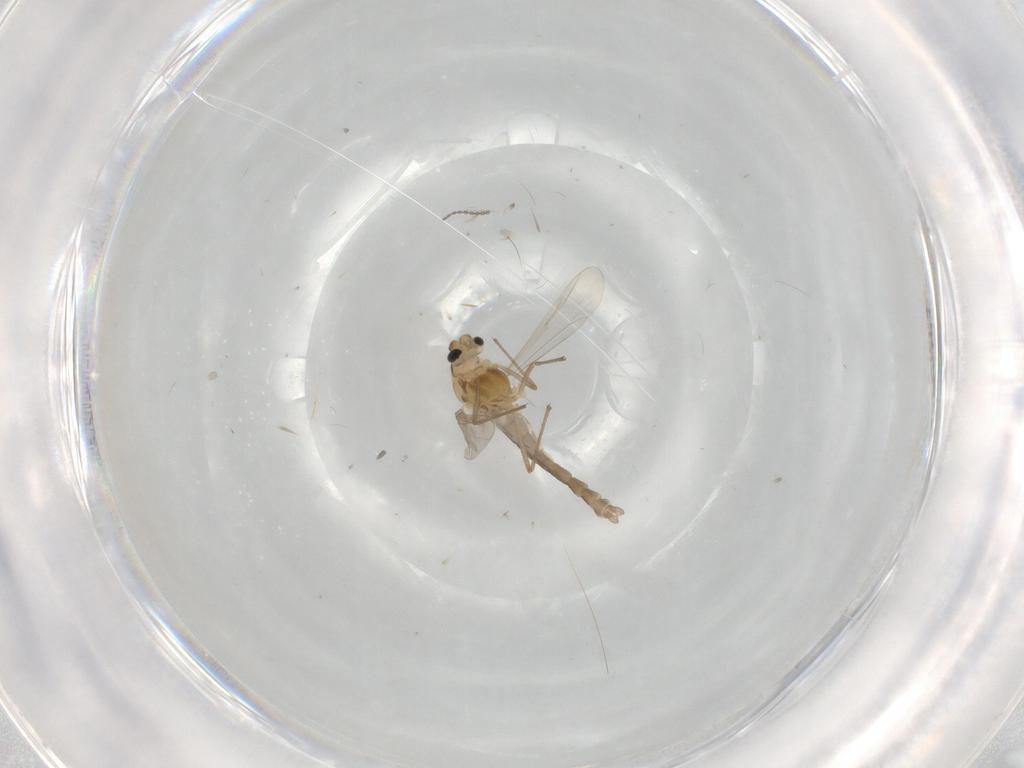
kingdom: Animalia
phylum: Arthropoda
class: Insecta
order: Diptera
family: Chironomidae
